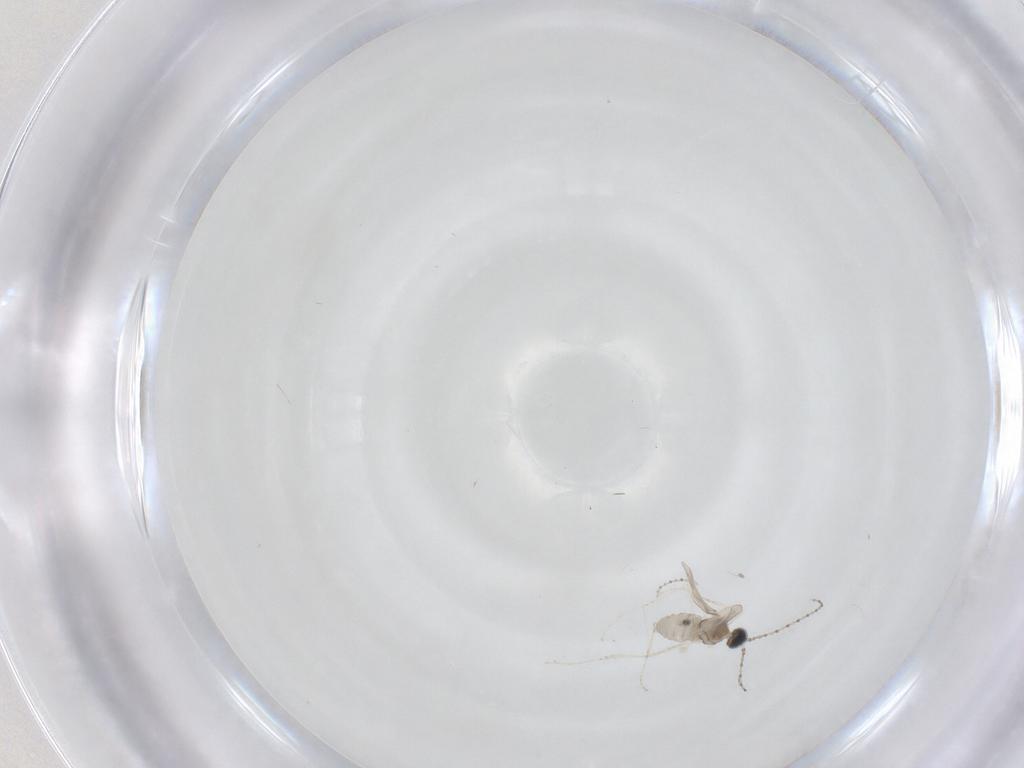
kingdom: Animalia
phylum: Arthropoda
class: Insecta
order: Diptera
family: Cecidomyiidae
